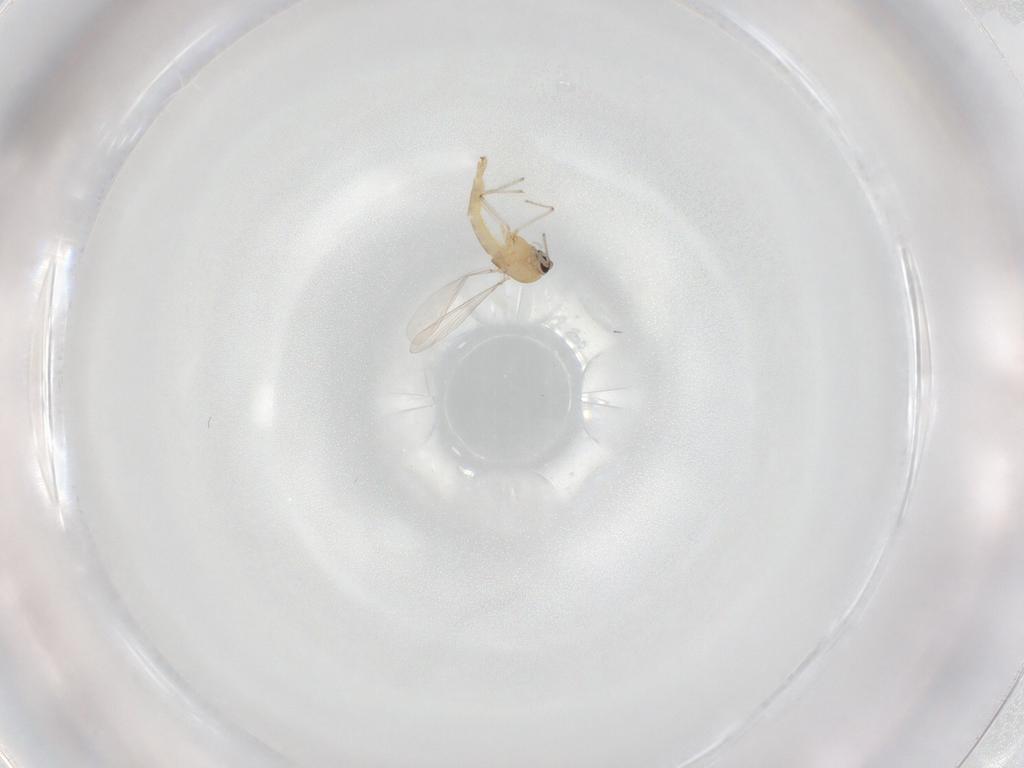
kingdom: Animalia
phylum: Arthropoda
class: Insecta
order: Diptera
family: Chironomidae
